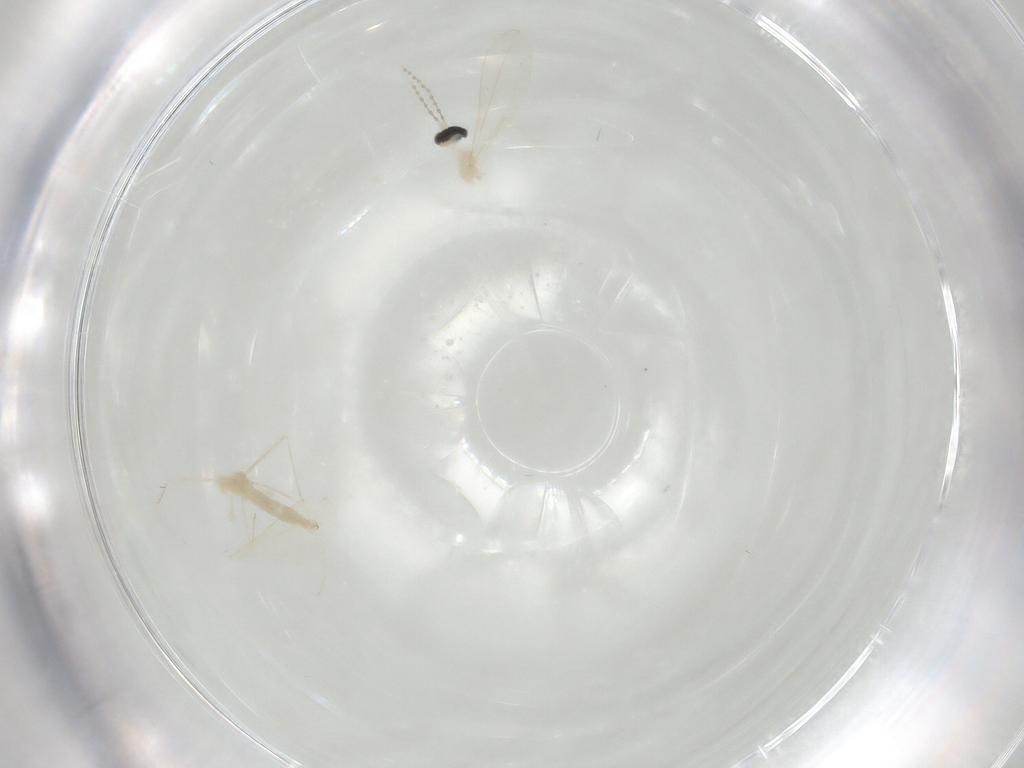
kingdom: Animalia
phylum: Arthropoda
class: Insecta
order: Diptera
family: Cecidomyiidae
